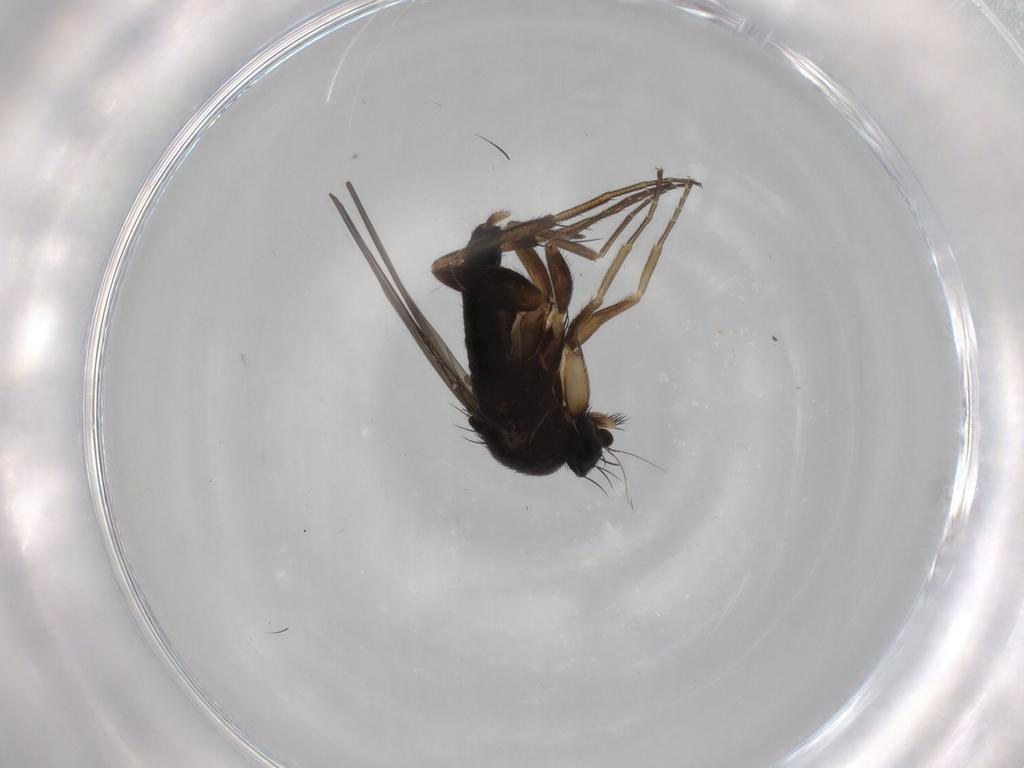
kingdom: Animalia
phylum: Arthropoda
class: Insecta
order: Diptera
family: Phoridae
